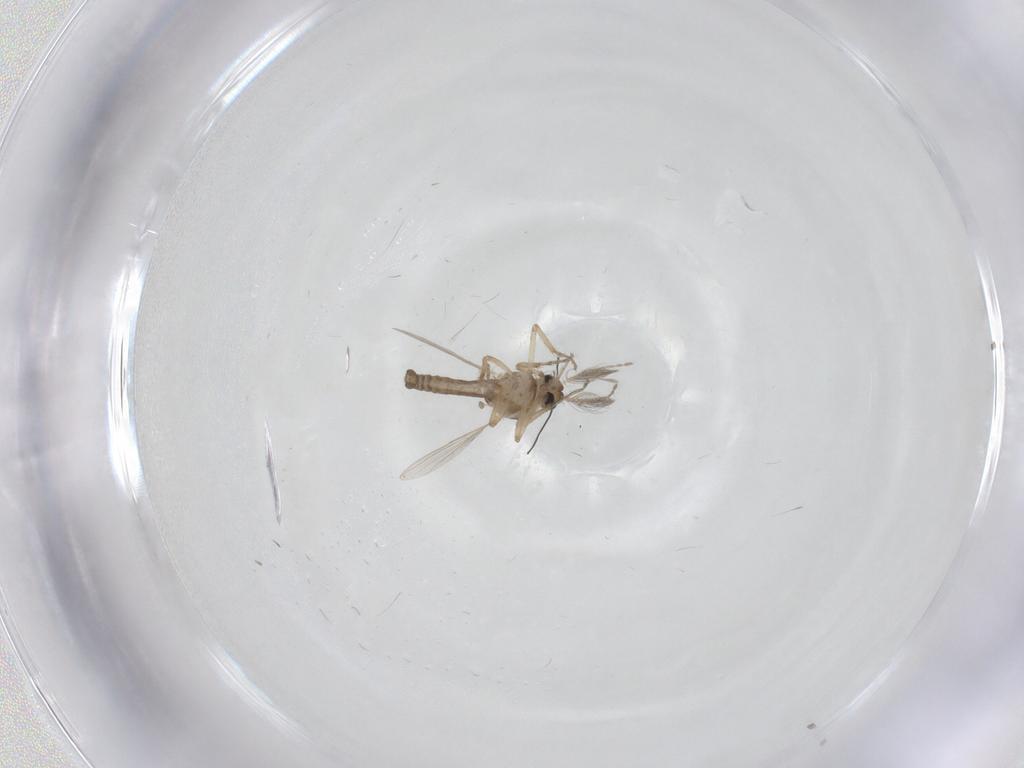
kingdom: Animalia
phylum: Arthropoda
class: Insecta
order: Diptera
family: Ceratopogonidae
